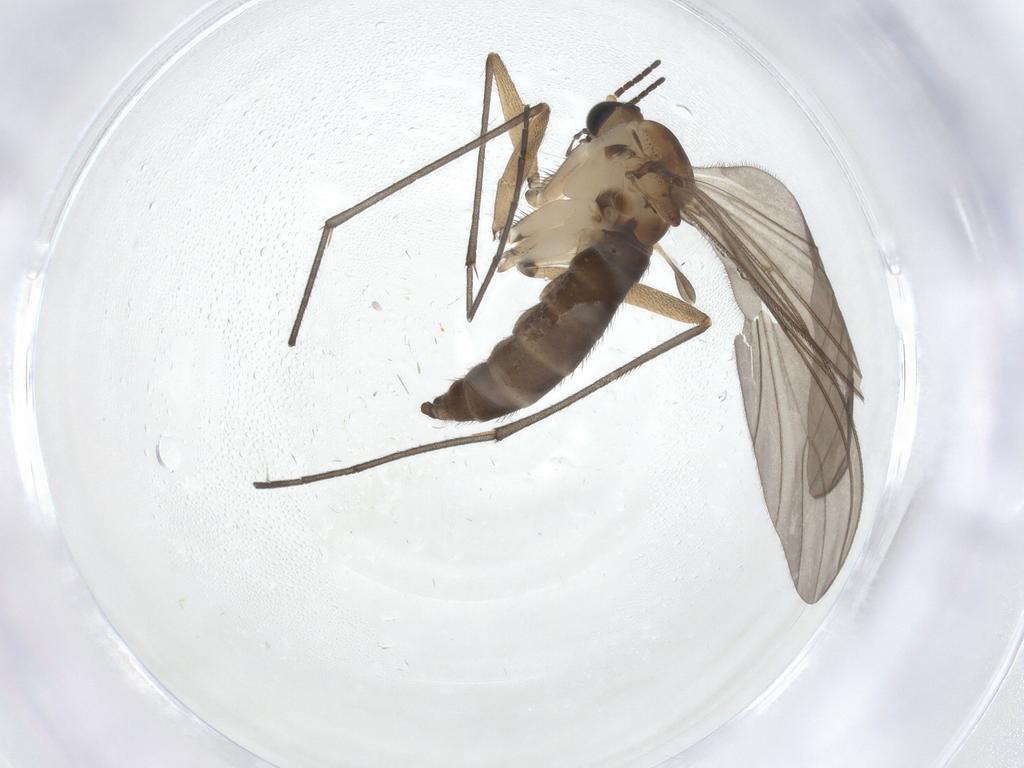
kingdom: Animalia
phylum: Arthropoda
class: Insecta
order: Diptera
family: Sciaridae
